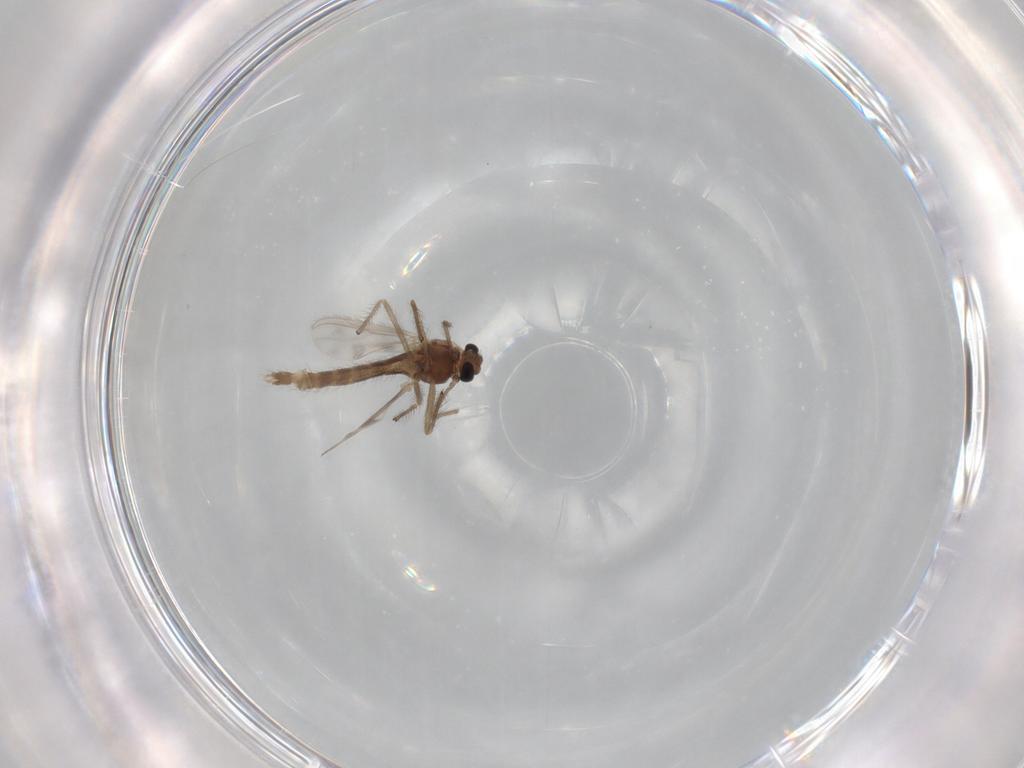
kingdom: Animalia
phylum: Arthropoda
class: Insecta
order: Diptera
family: Chironomidae
